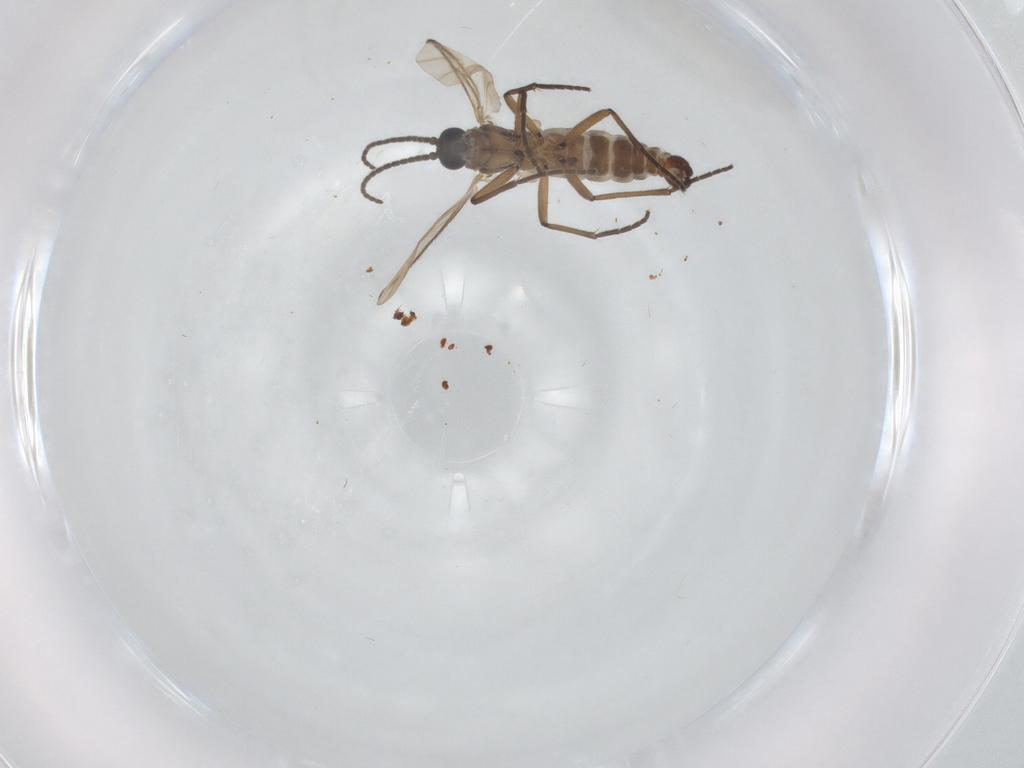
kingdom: Animalia
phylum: Arthropoda
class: Insecta
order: Diptera
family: Sciaridae
